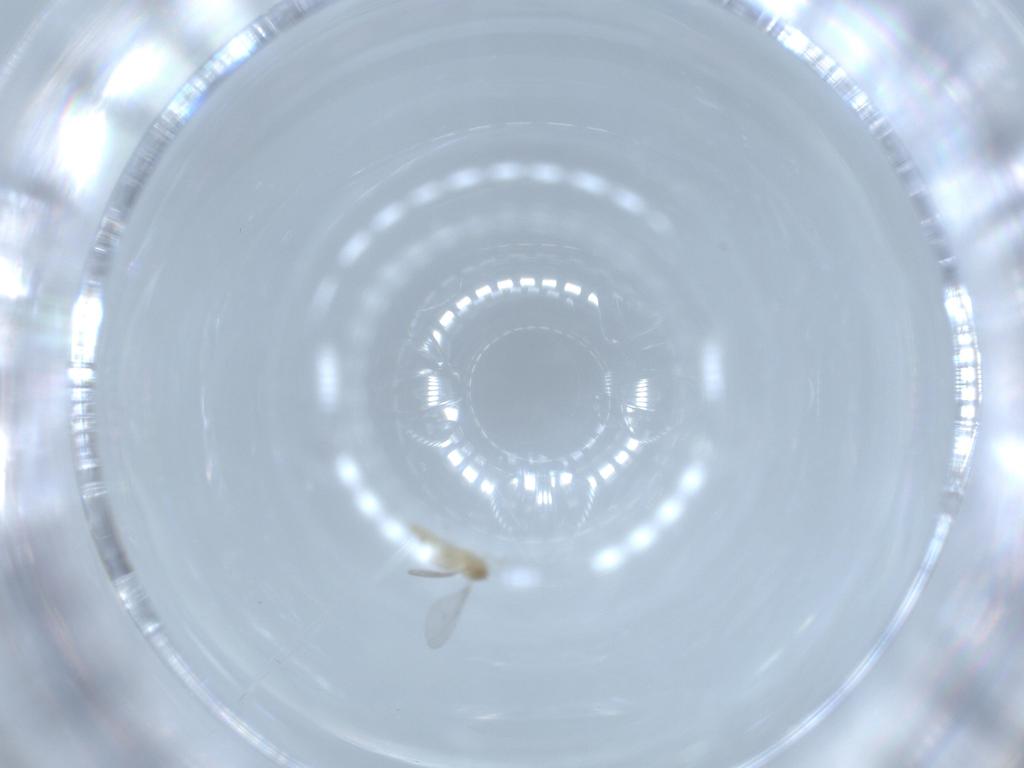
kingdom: Animalia
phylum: Arthropoda
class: Insecta
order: Diptera
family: Cecidomyiidae
